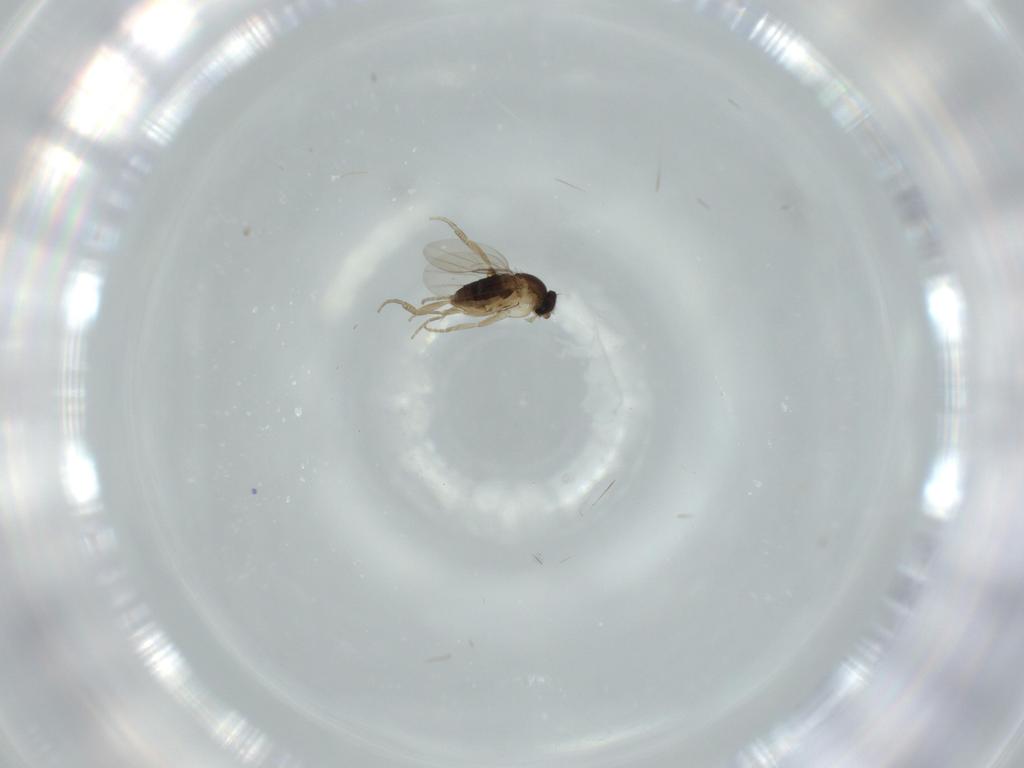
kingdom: Animalia
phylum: Arthropoda
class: Insecta
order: Diptera
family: Phoridae
